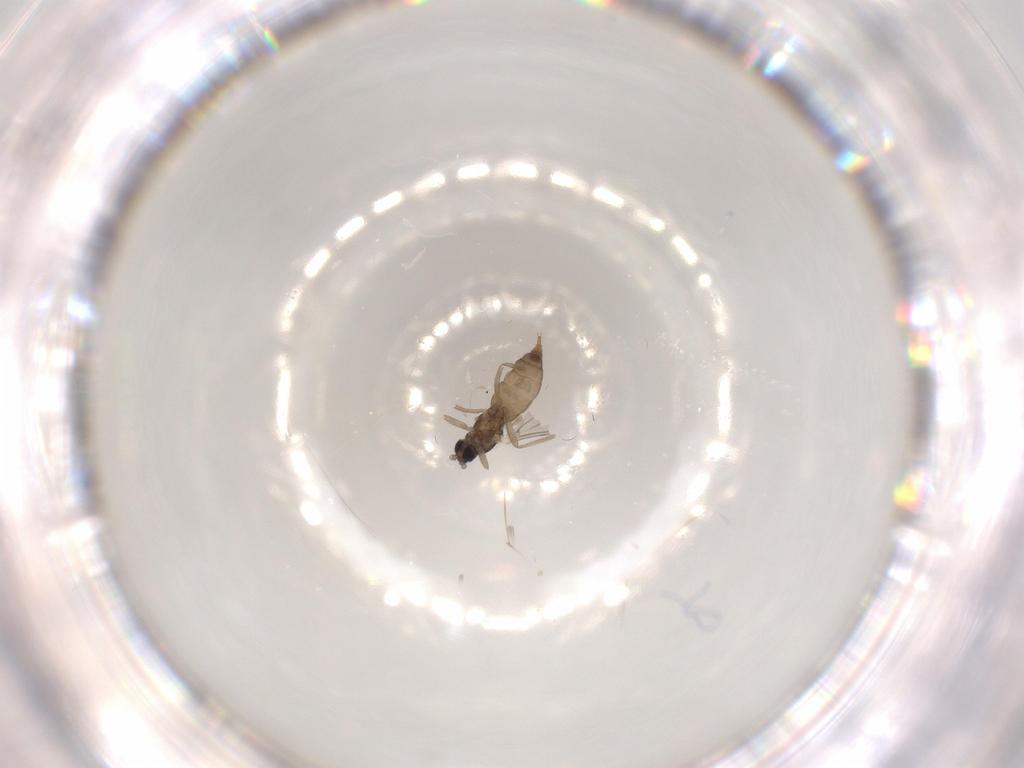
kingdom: Animalia
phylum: Arthropoda
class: Insecta
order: Diptera
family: Cecidomyiidae
